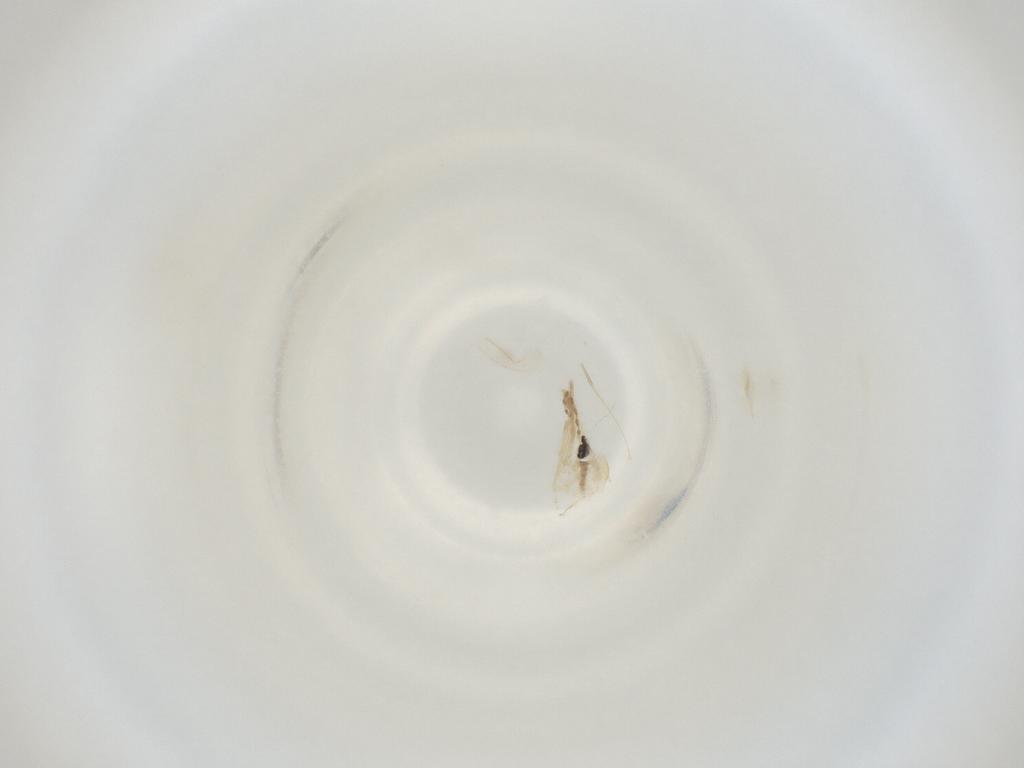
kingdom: Animalia
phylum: Arthropoda
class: Insecta
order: Diptera
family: Cecidomyiidae
